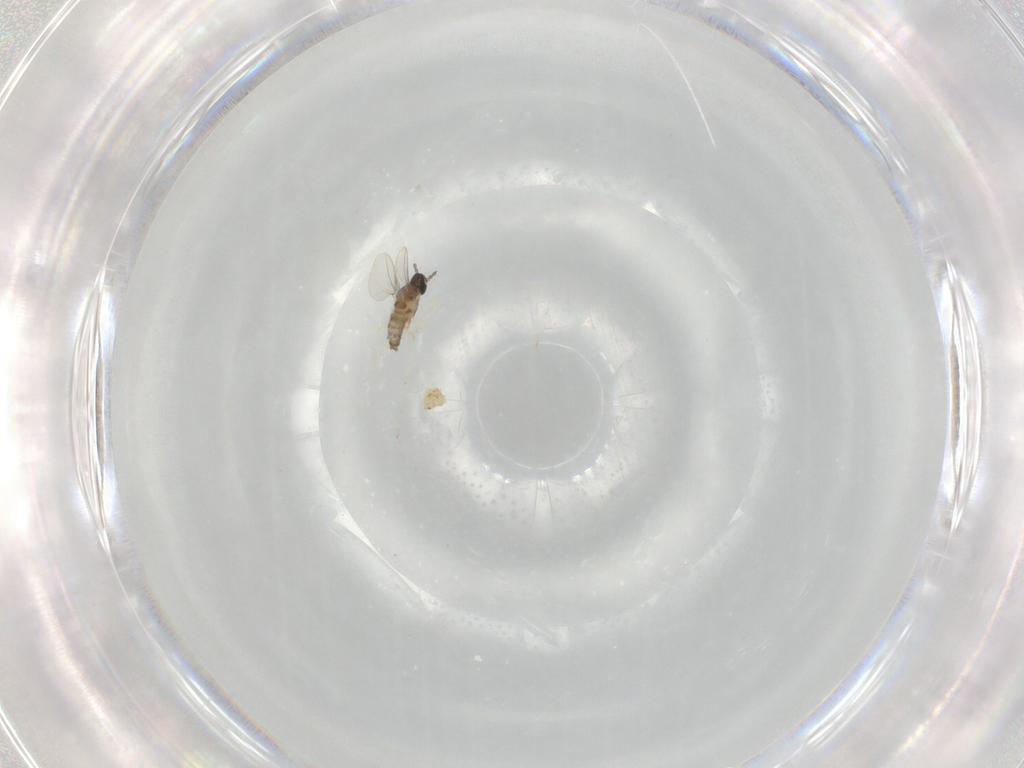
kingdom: Animalia
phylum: Arthropoda
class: Insecta
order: Diptera
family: Cecidomyiidae
